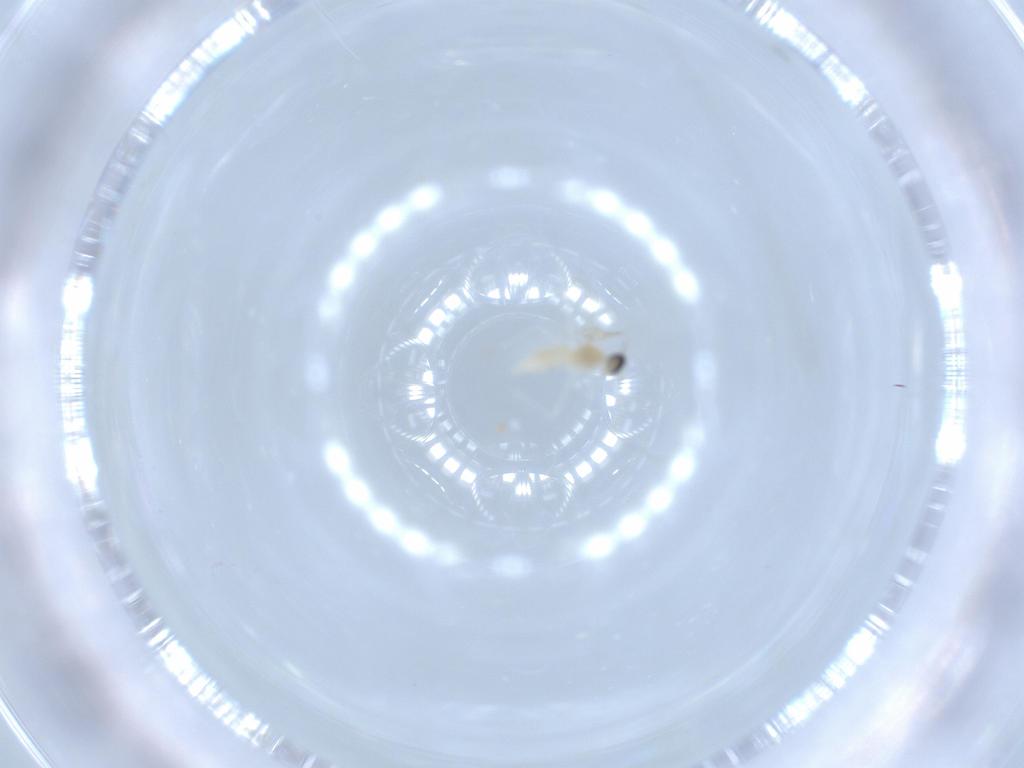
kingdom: Animalia
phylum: Arthropoda
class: Insecta
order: Diptera
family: Cecidomyiidae
